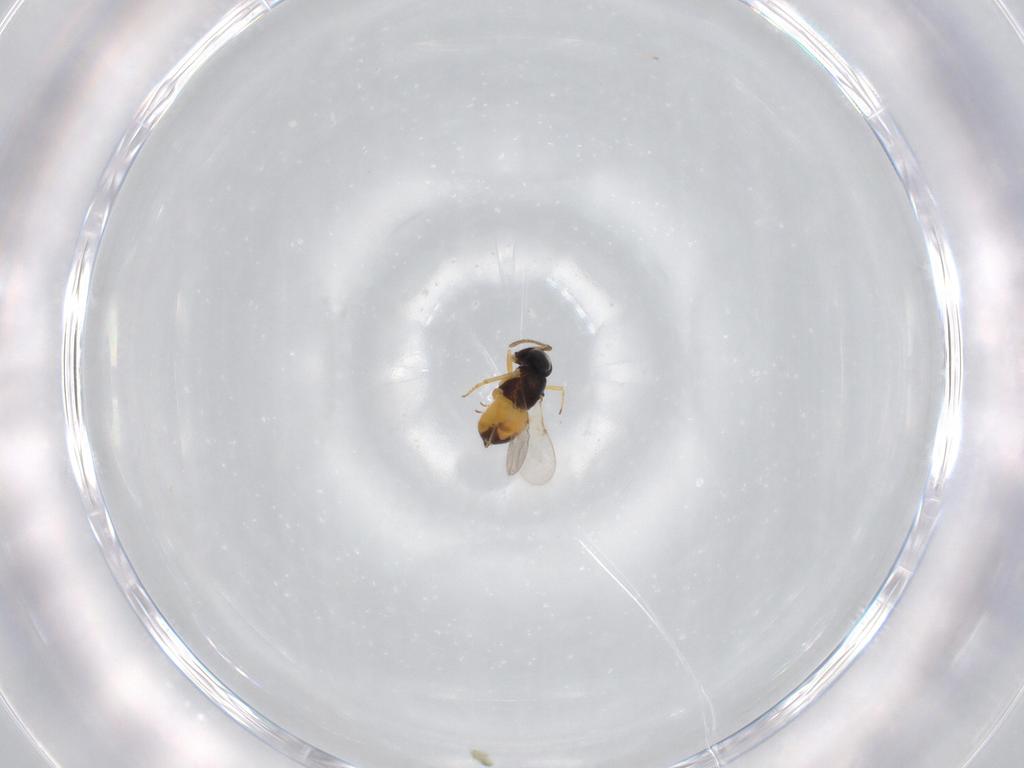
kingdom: Animalia
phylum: Arthropoda
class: Insecta
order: Hymenoptera
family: Encyrtidae
